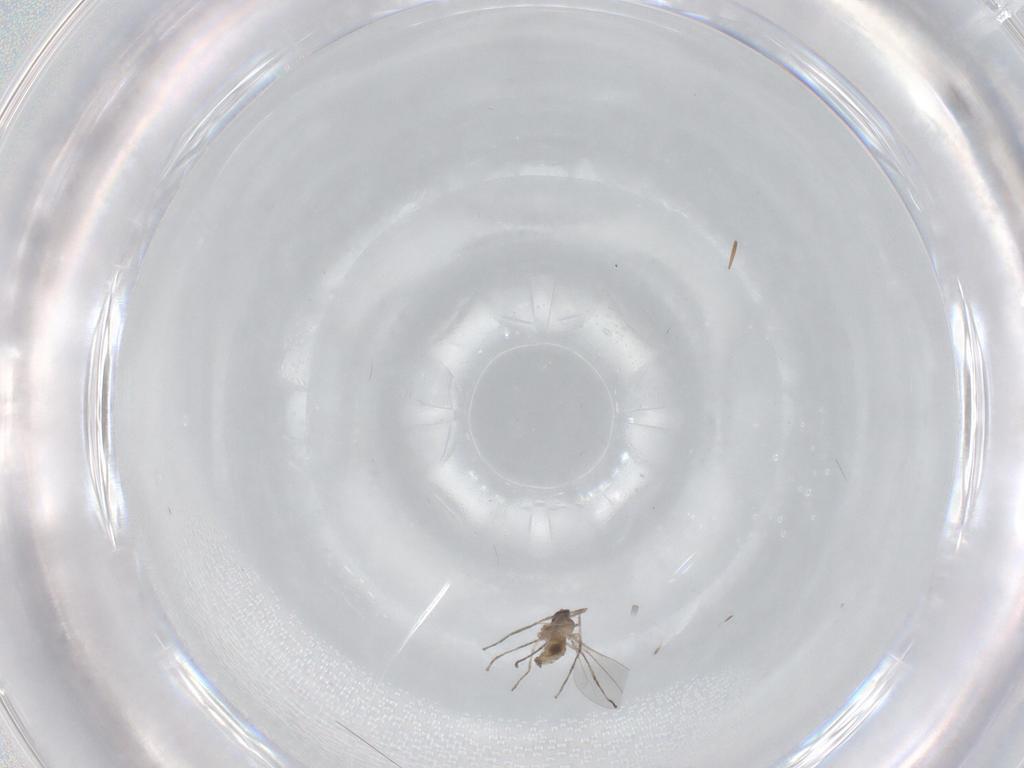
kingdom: Animalia
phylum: Arthropoda
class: Insecta
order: Diptera
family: Cecidomyiidae
